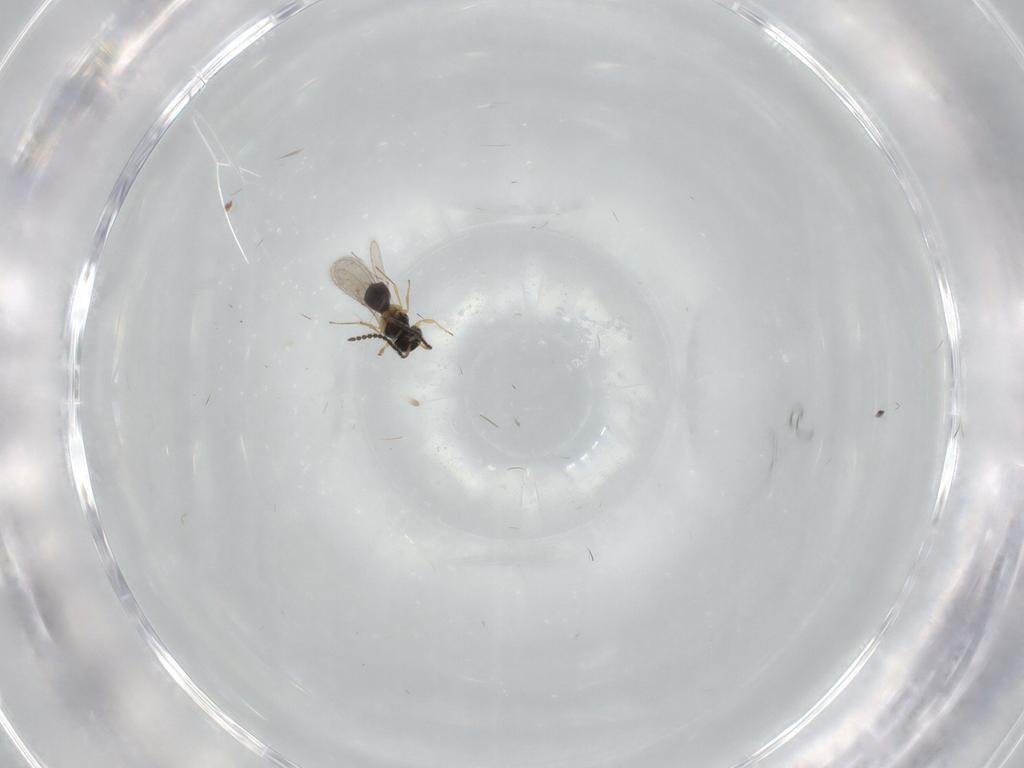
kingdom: Animalia
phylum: Arthropoda
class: Insecta
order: Hymenoptera
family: Scelionidae
